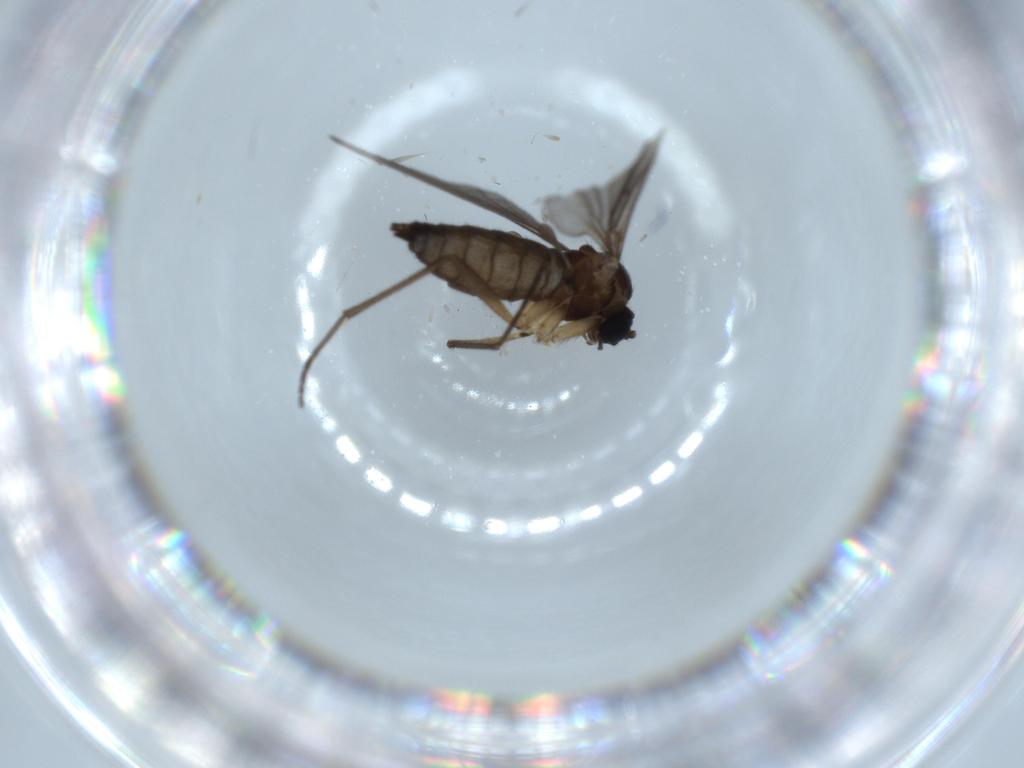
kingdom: Animalia
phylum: Arthropoda
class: Insecta
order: Diptera
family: Sciaridae
